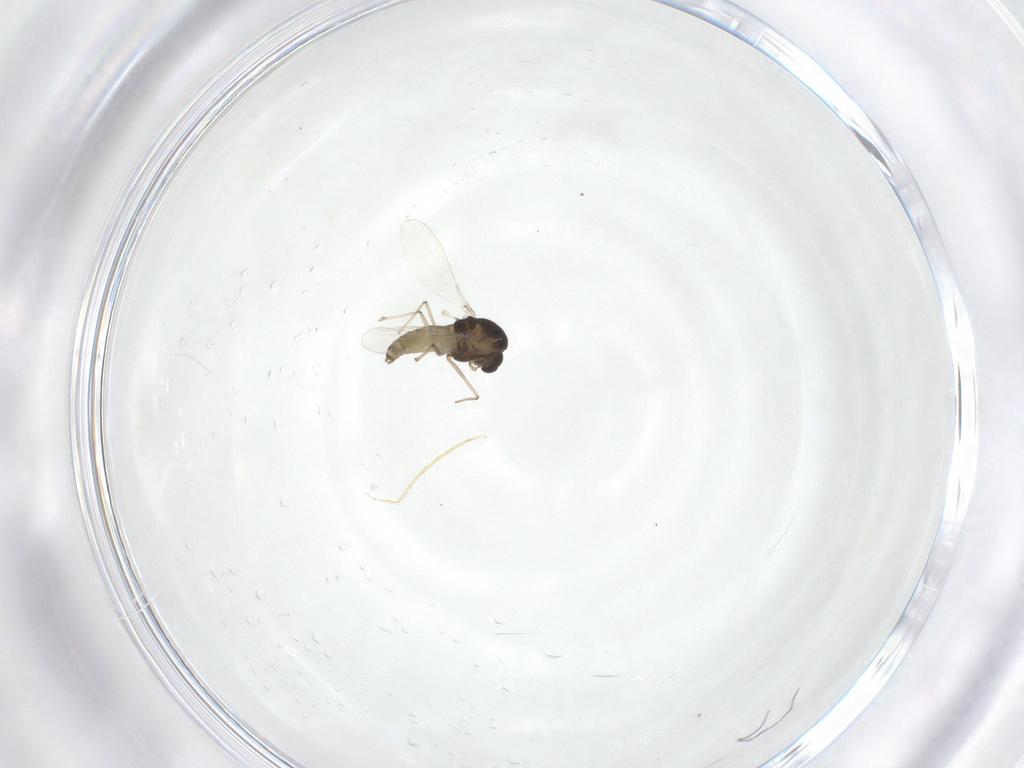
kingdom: Animalia
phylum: Arthropoda
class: Insecta
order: Diptera
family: Chironomidae
